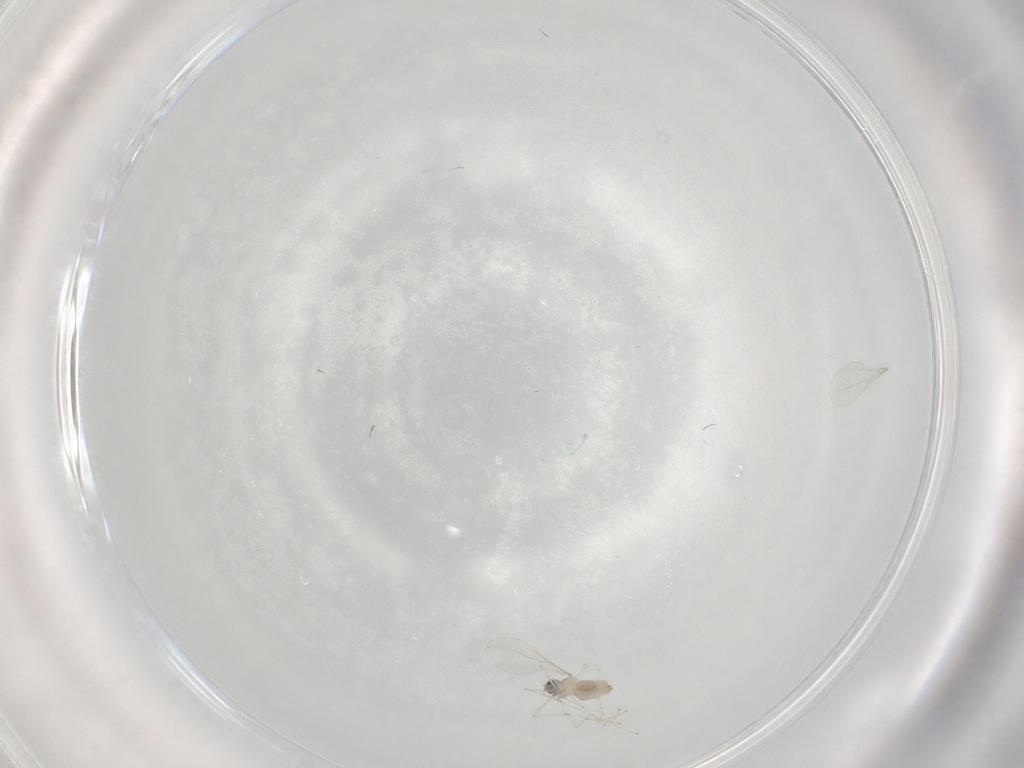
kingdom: Animalia
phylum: Arthropoda
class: Insecta
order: Diptera
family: Cecidomyiidae
